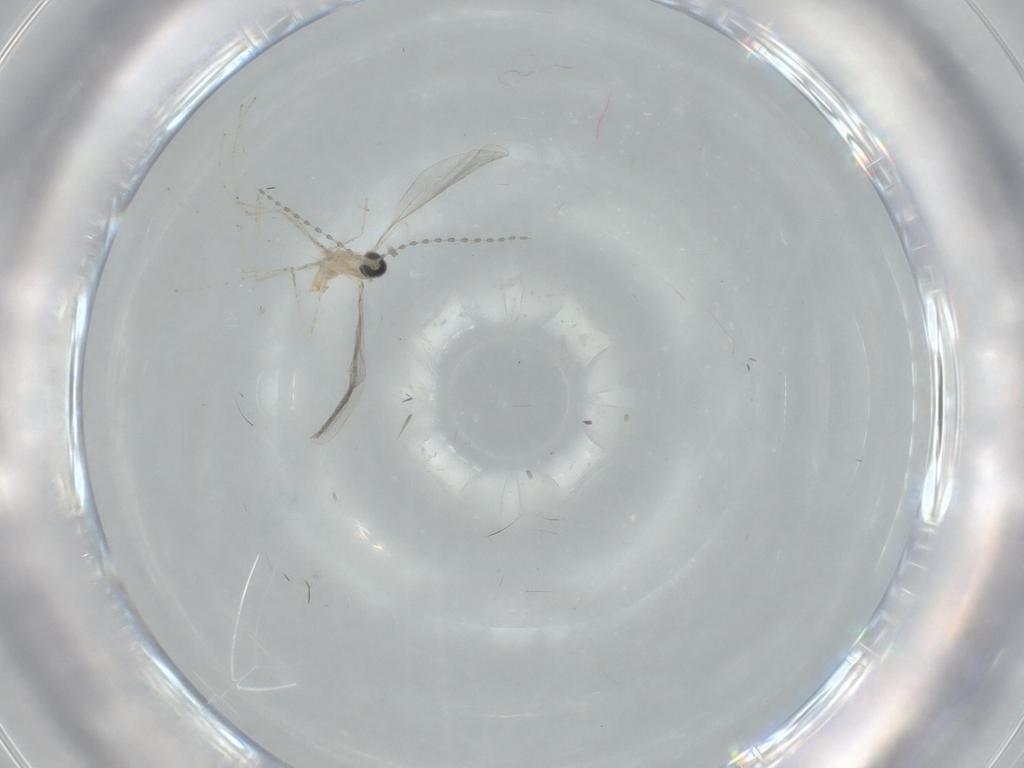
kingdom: Animalia
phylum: Arthropoda
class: Insecta
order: Diptera
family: Cecidomyiidae
